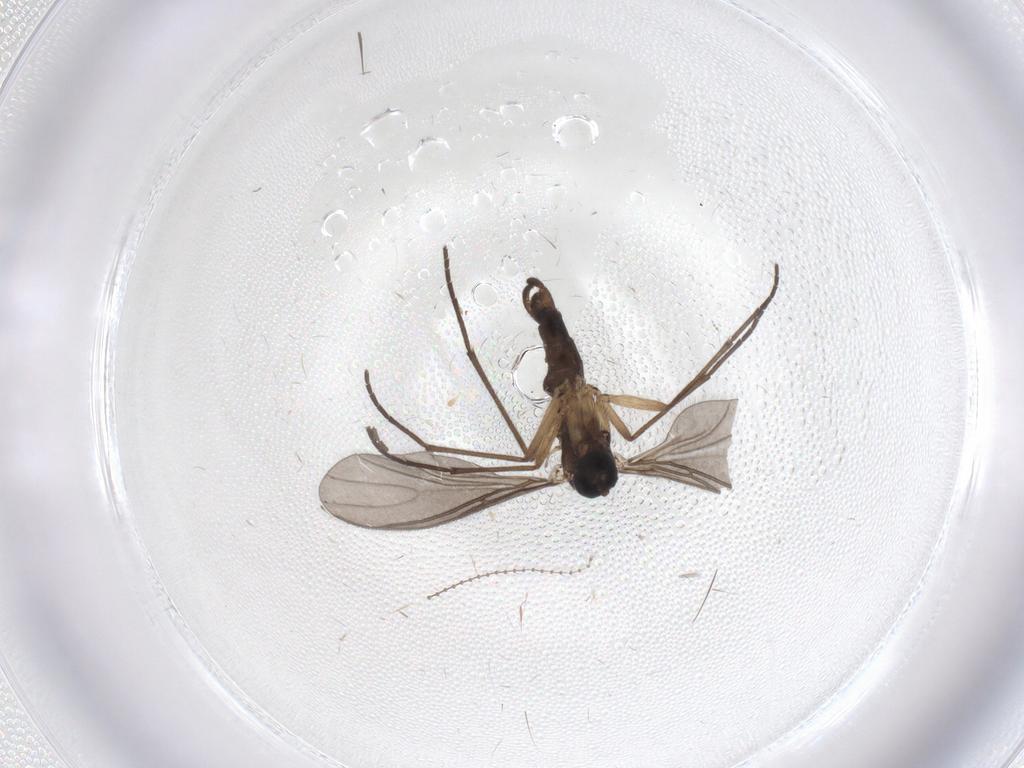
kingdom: Animalia
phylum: Arthropoda
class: Insecta
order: Diptera
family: Sciaridae
